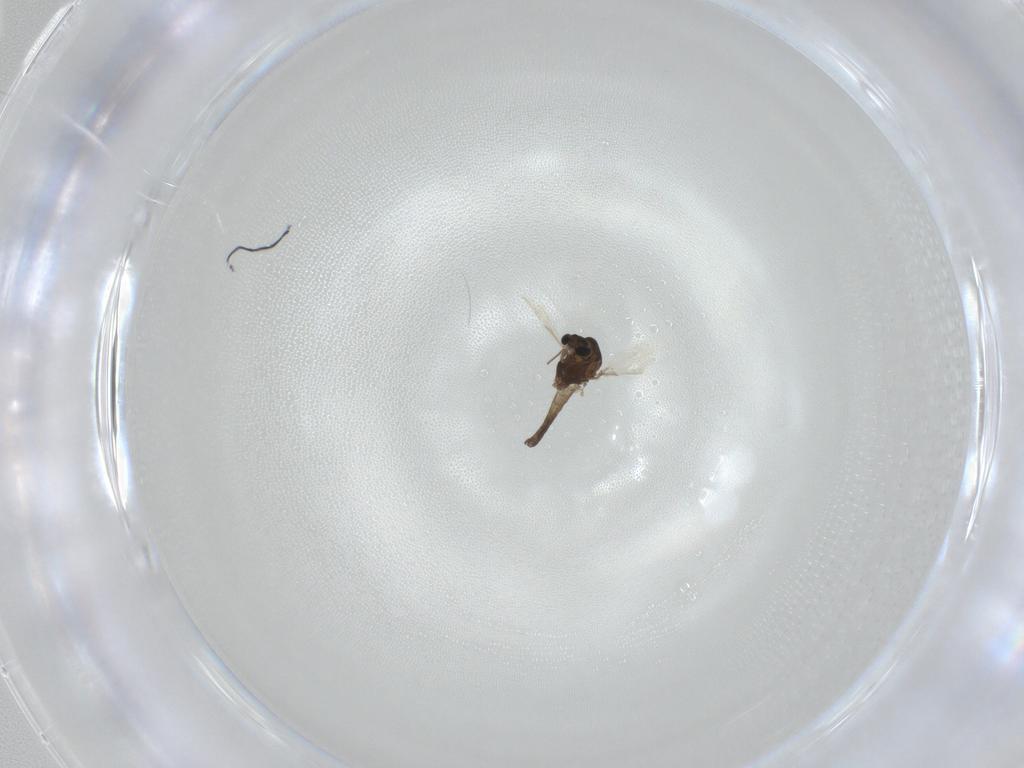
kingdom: Animalia
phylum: Arthropoda
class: Insecta
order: Diptera
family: Chironomidae
